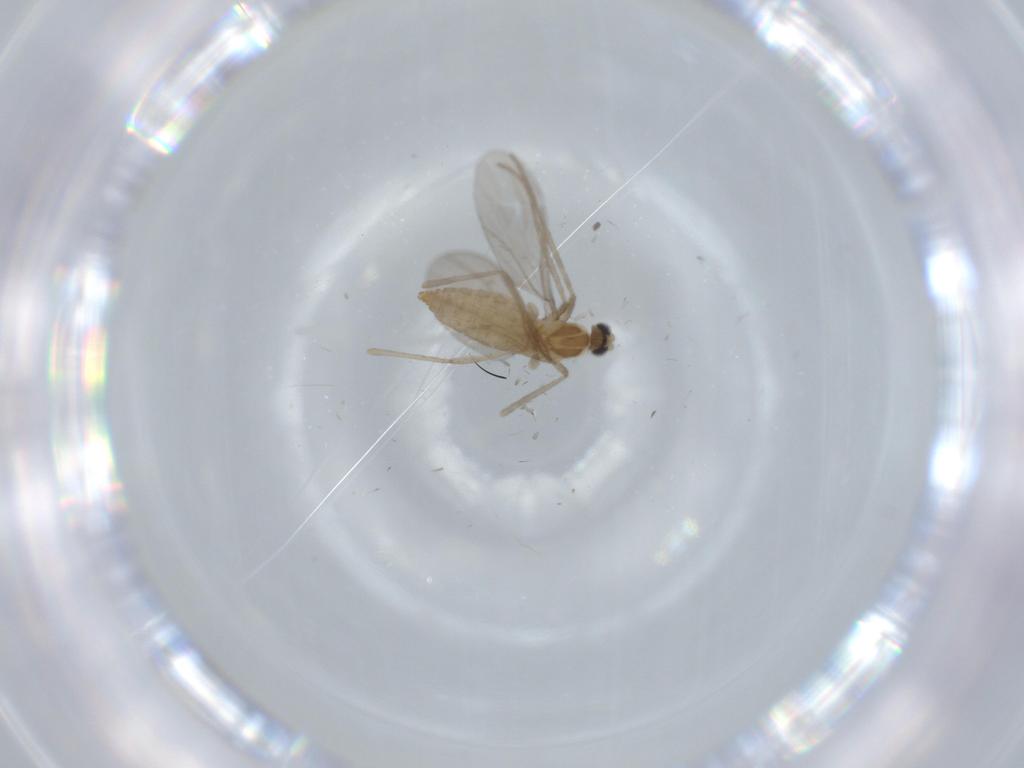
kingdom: Animalia
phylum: Arthropoda
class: Insecta
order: Diptera
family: Cecidomyiidae
